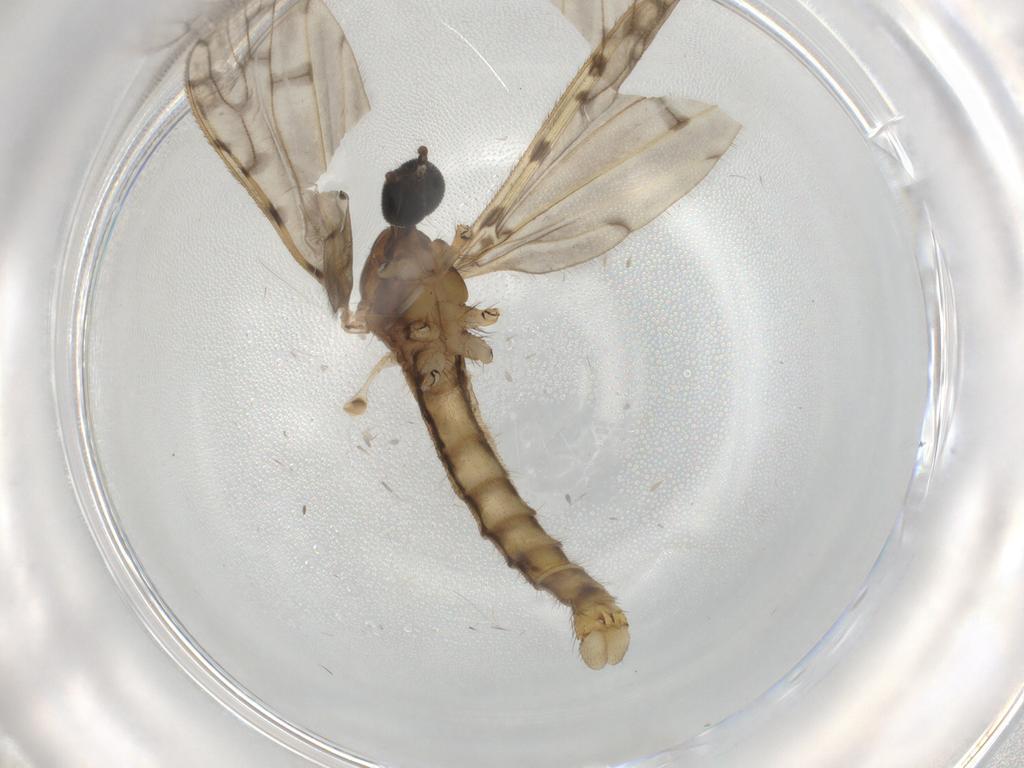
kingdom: Animalia
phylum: Arthropoda
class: Insecta
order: Diptera
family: Limoniidae
